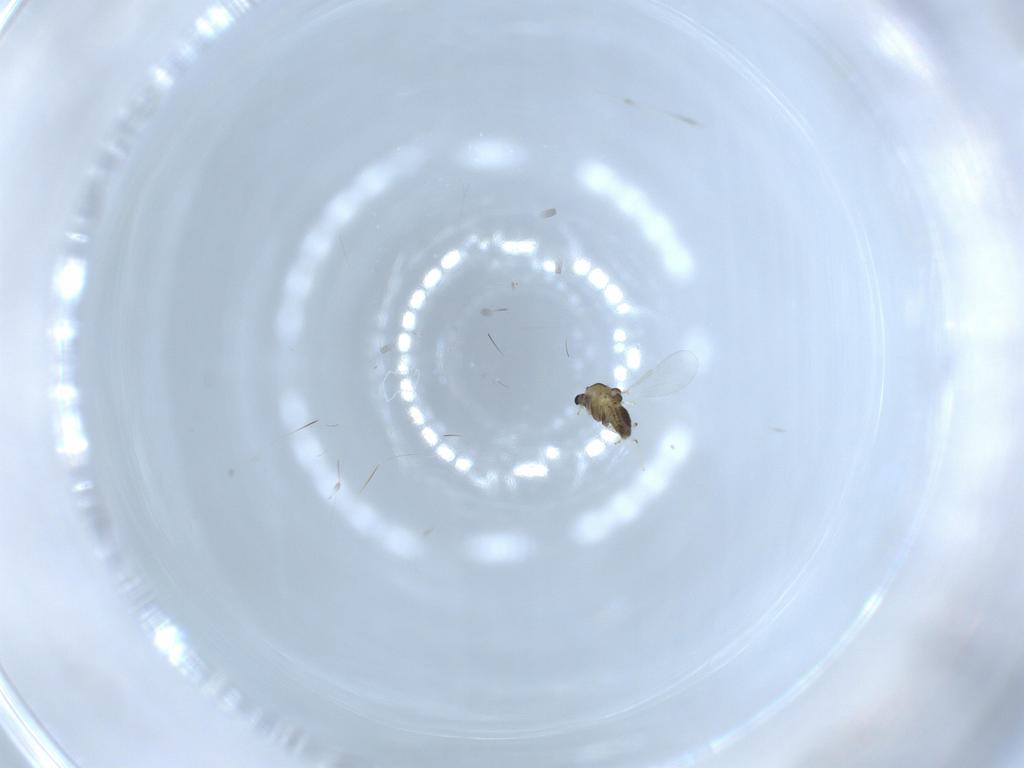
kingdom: Animalia
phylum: Arthropoda
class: Insecta
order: Diptera
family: Chironomidae
